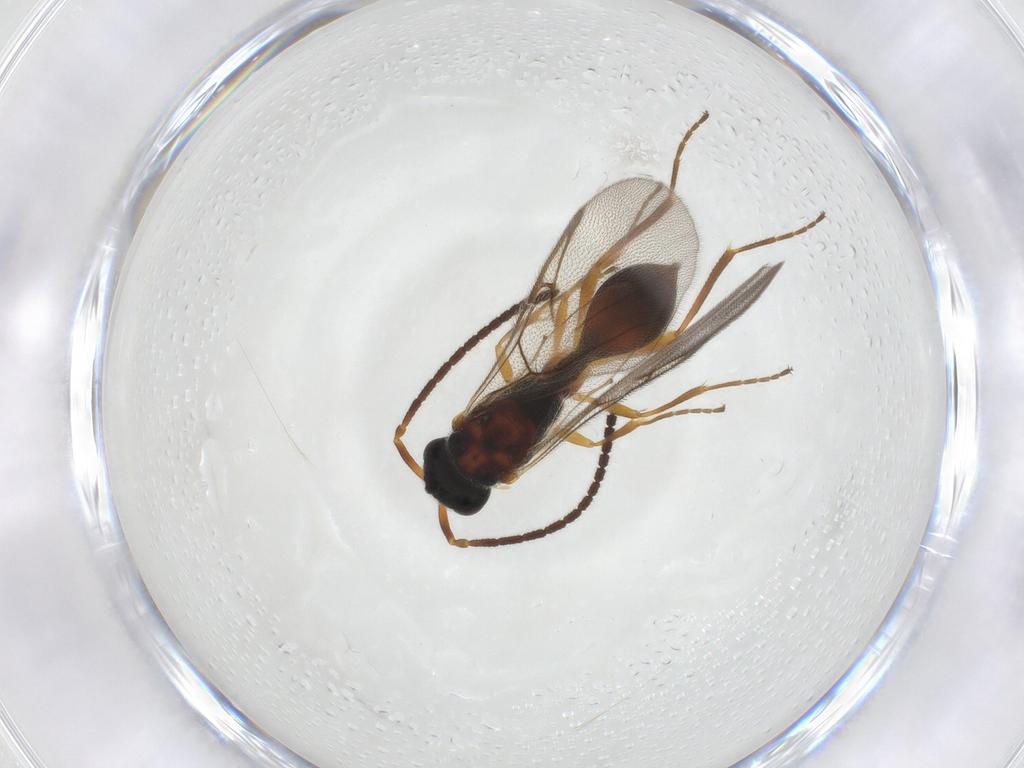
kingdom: Animalia
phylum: Arthropoda
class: Insecta
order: Hymenoptera
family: Diapriidae
